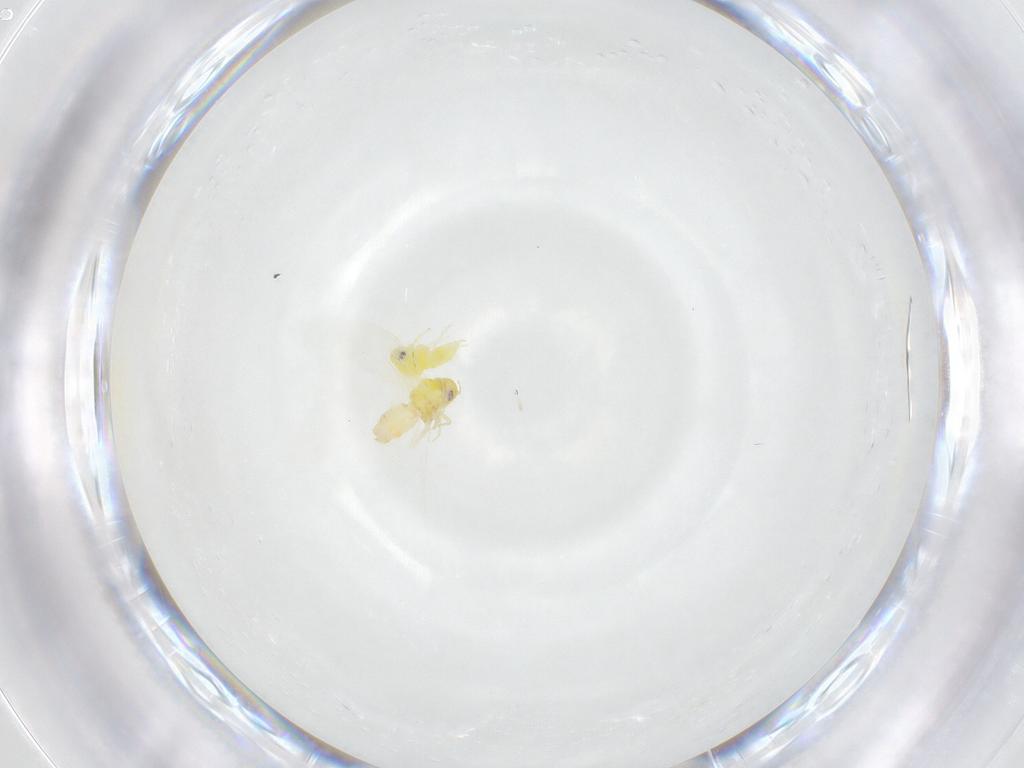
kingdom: Animalia
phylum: Arthropoda
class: Insecta
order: Hemiptera
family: Aleyrodidae
